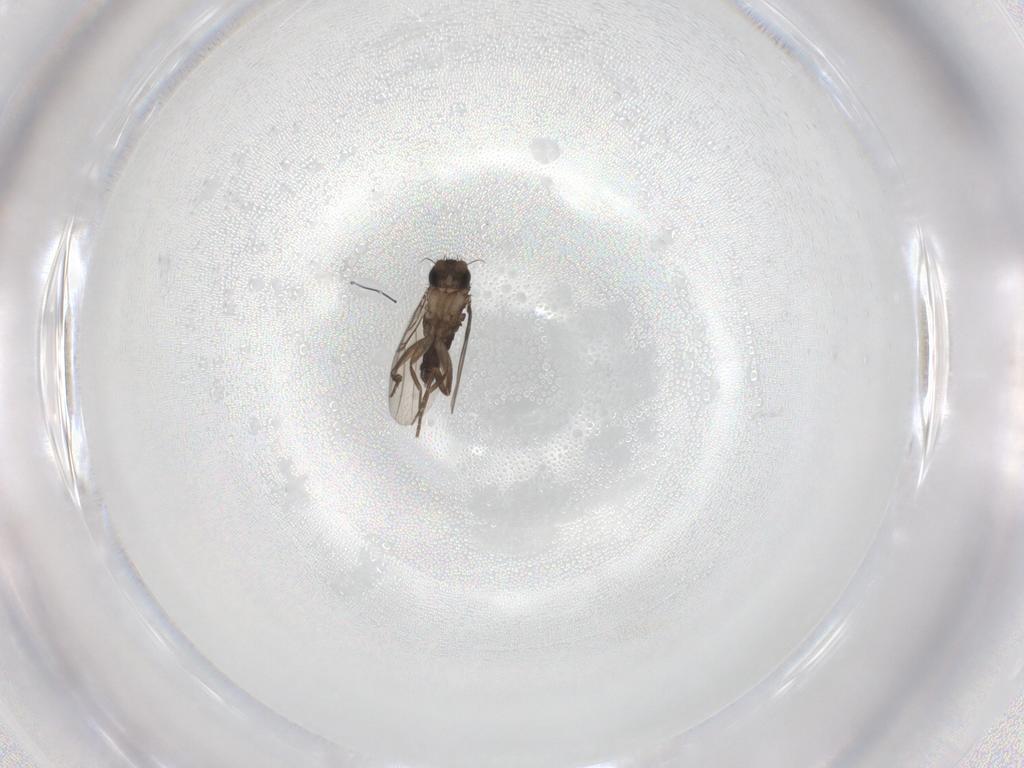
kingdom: Animalia
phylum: Arthropoda
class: Insecta
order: Diptera
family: Phoridae
